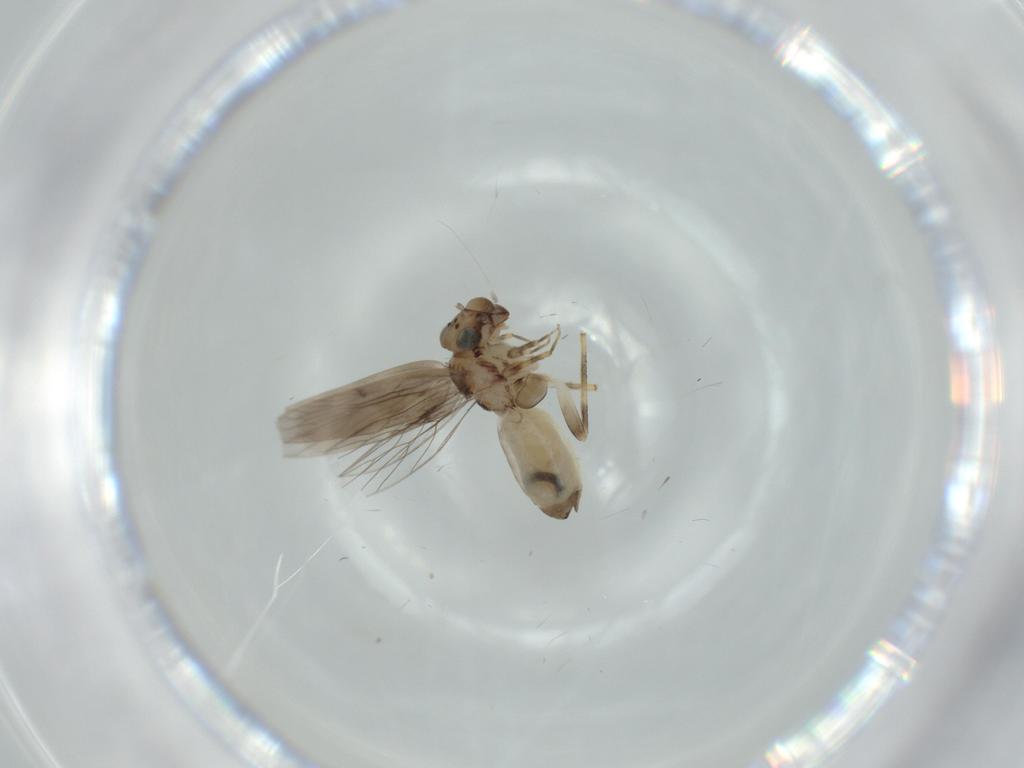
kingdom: Animalia
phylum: Arthropoda
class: Insecta
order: Psocodea
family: Lepidopsocidae
